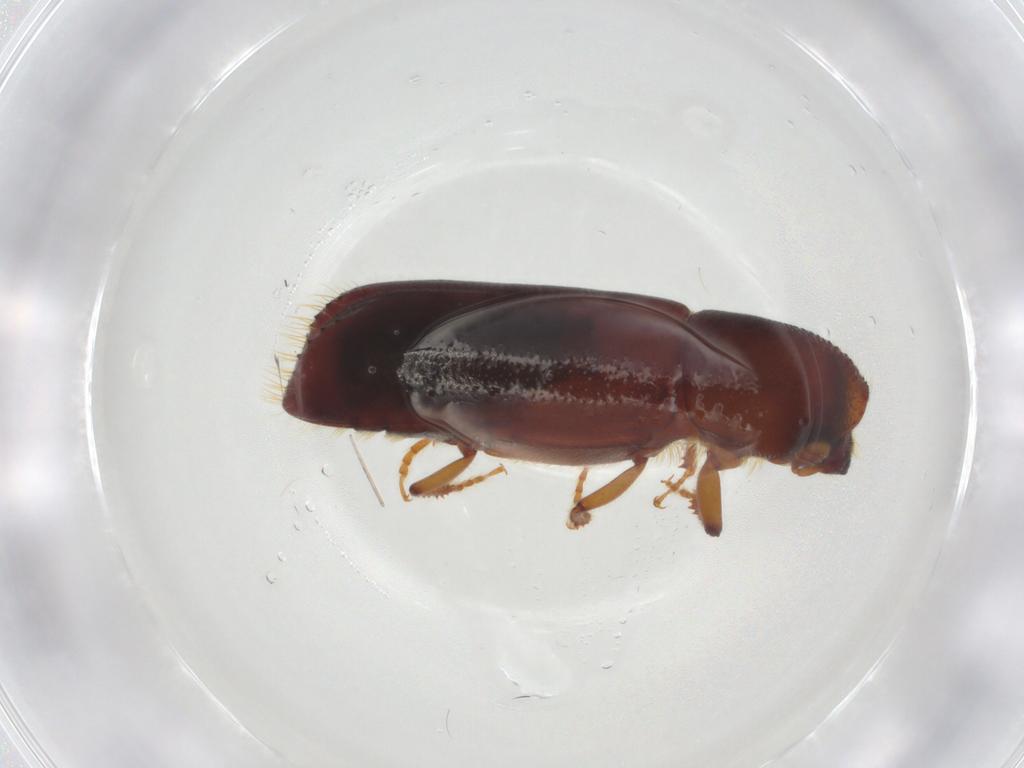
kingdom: Animalia
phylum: Arthropoda
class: Insecta
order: Coleoptera
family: Curculionidae
